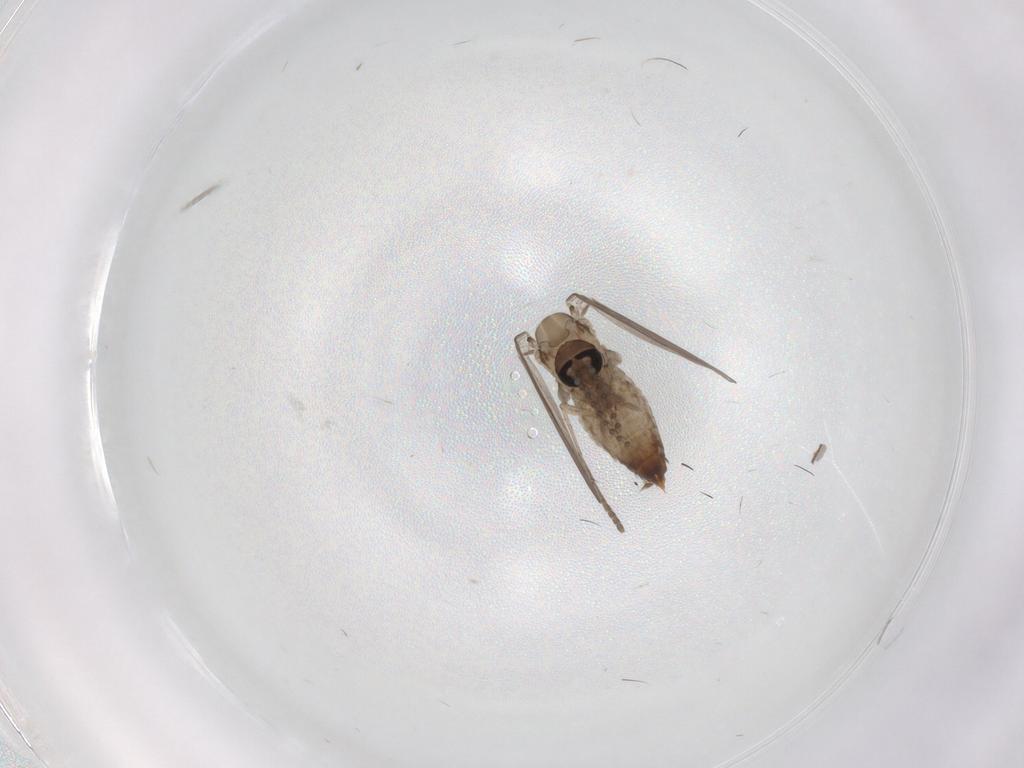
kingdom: Animalia
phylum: Arthropoda
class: Insecta
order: Diptera
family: Psychodidae
